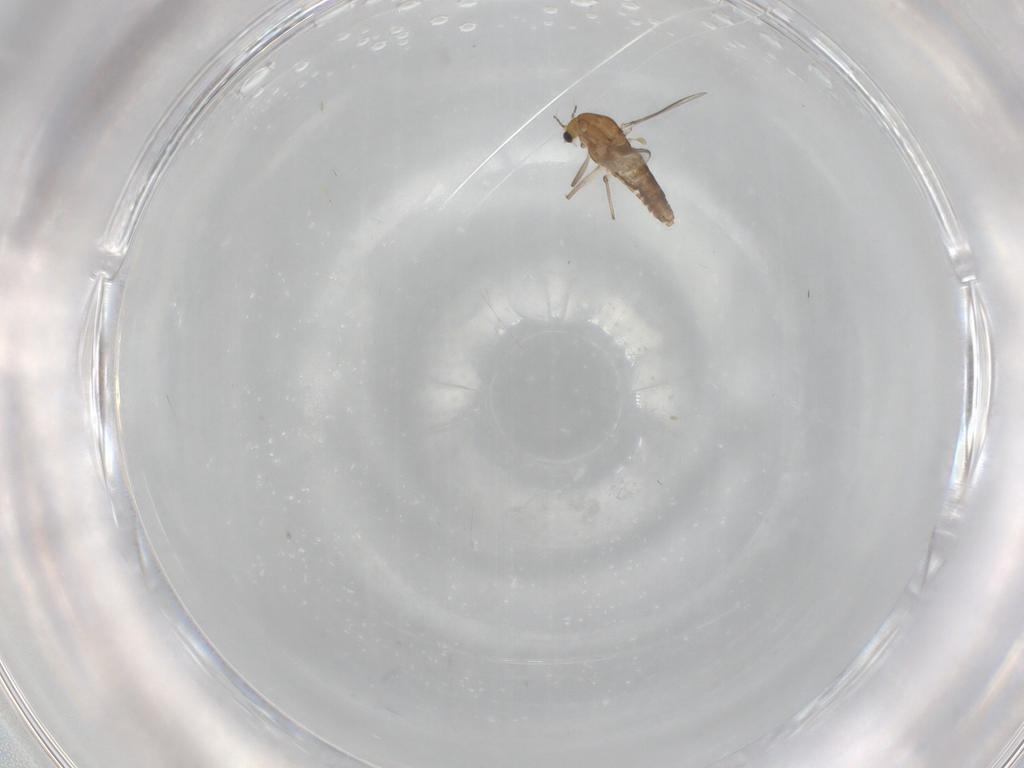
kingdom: Animalia
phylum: Arthropoda
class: Insecta
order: Diptera
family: Chironomidae
